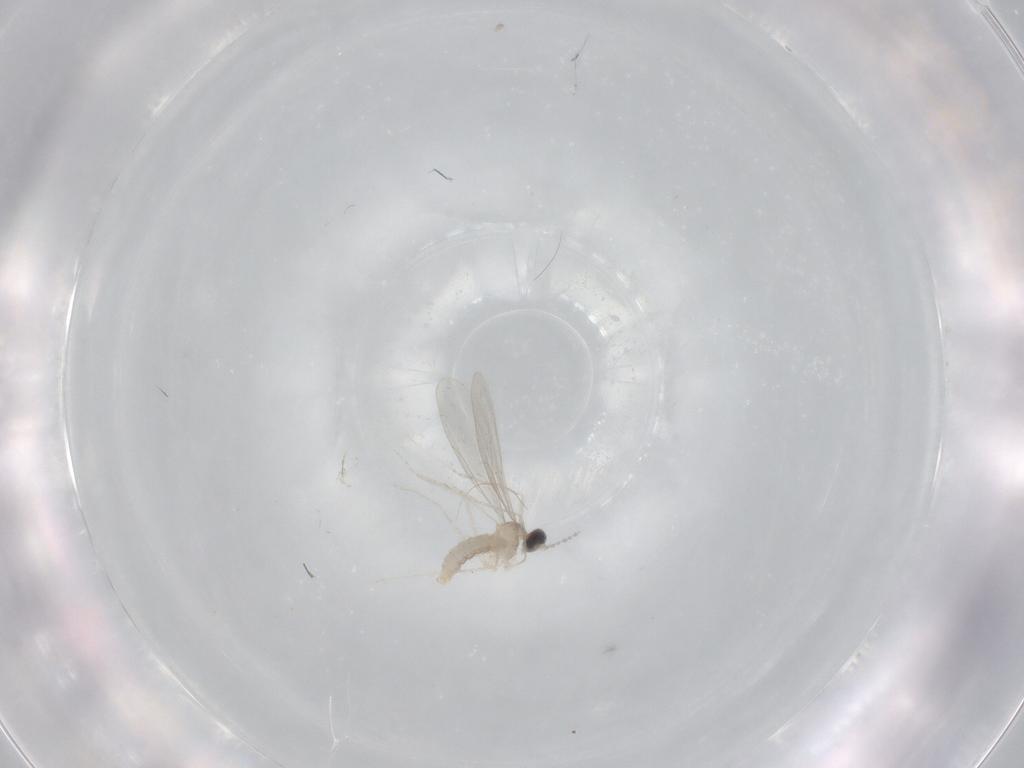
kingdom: Animalia
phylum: Arthropoda
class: Insecta
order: Diptera
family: Cecidomyiidae
